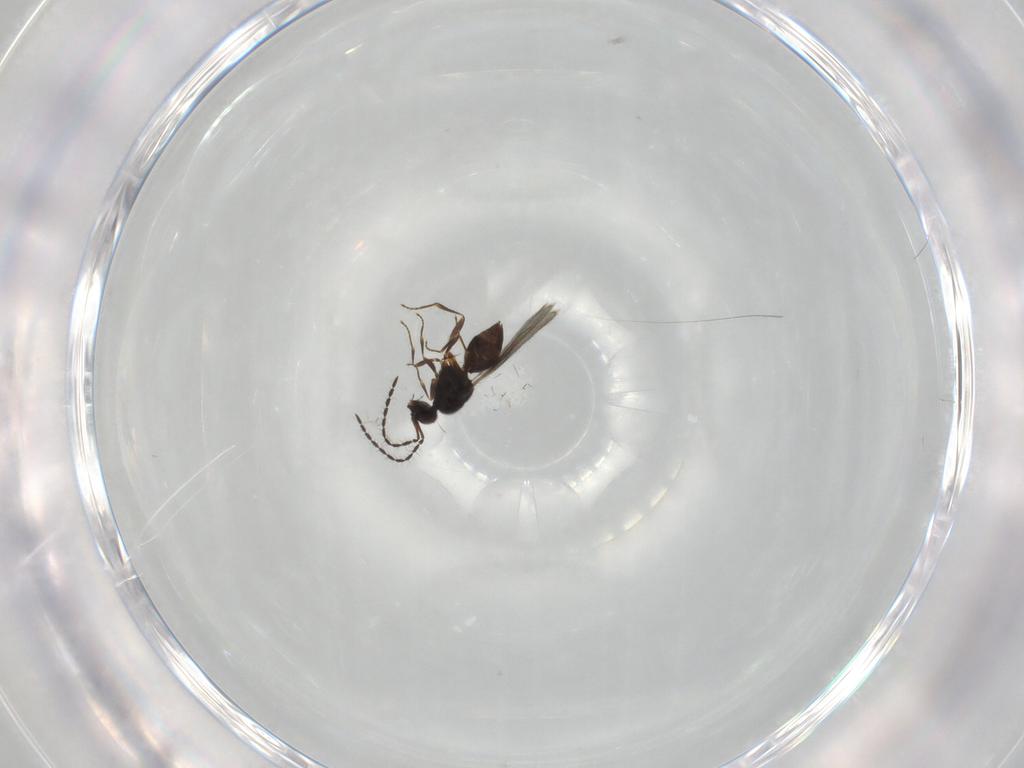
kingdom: Animalia
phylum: Arthropoda
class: Insecta
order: Hymenoptera
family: Ceraphronidae
